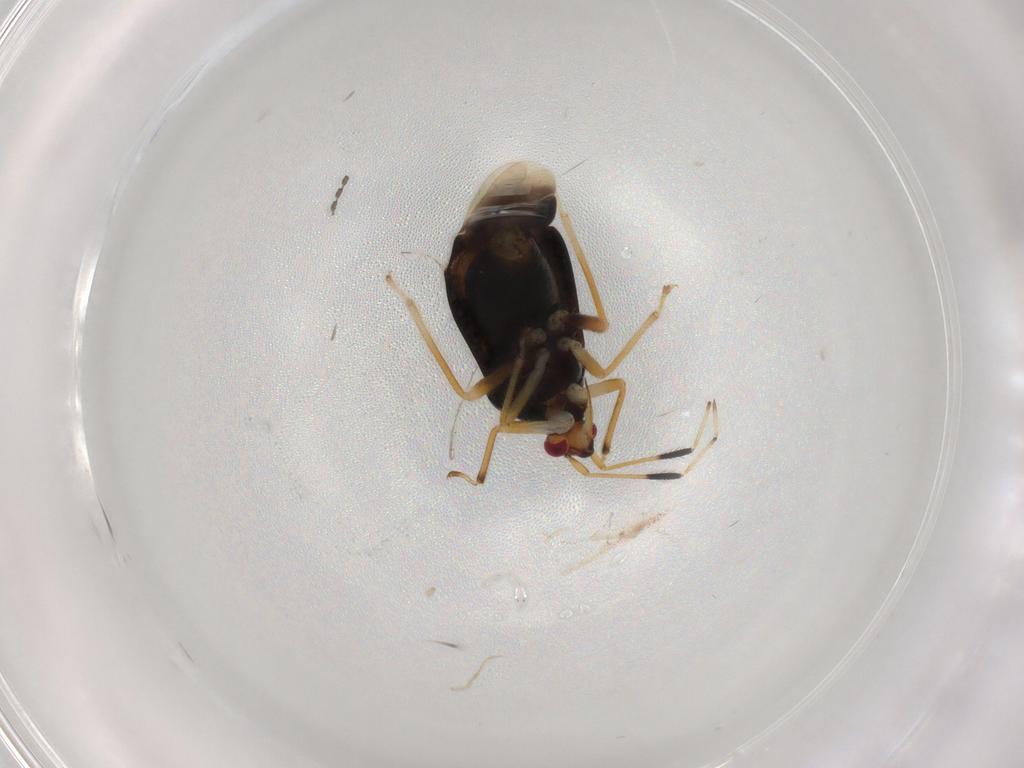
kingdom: Animalia
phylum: Arthropoda
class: Insecta
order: Hemiptera
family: Miridae
